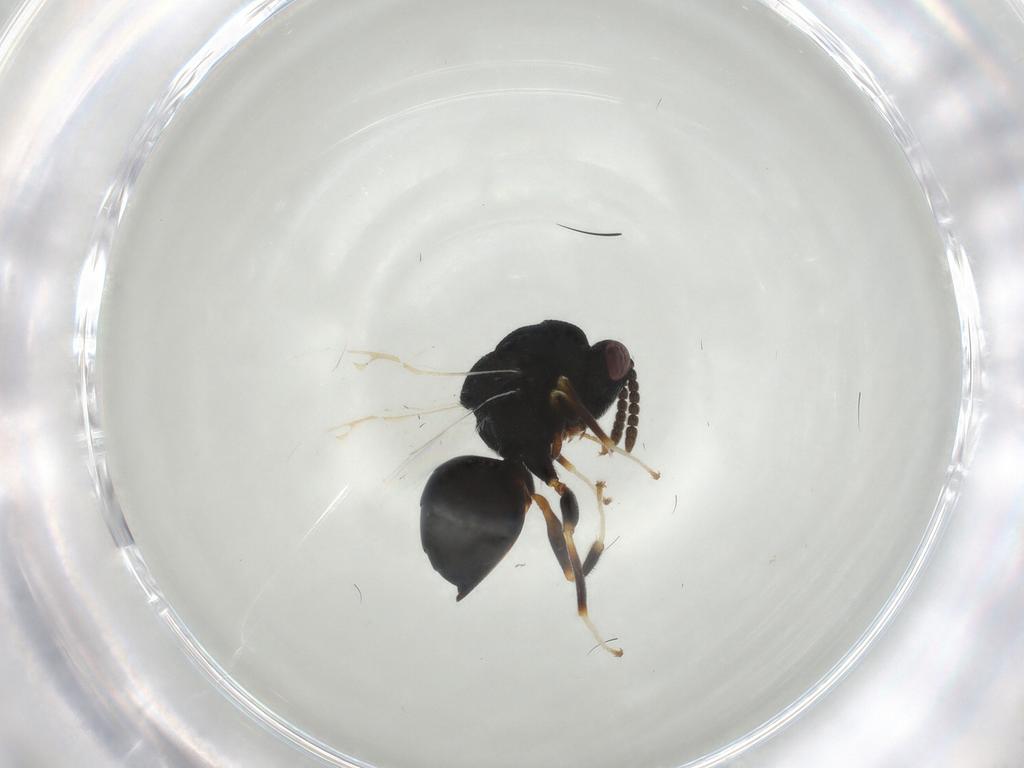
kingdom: Animalia
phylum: Arthropoda
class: Insecta
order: Hymenoptera
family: Eurytomidae
